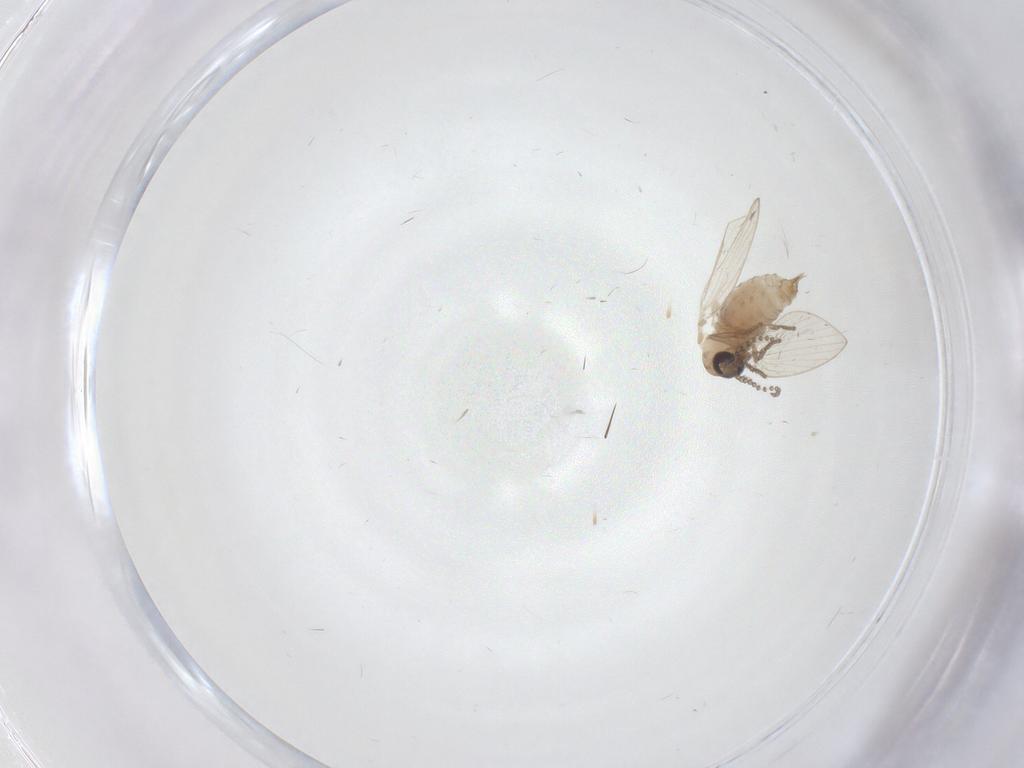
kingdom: Animalia
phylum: Arthropoda
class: Insecta
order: Diptera
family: Psychodidae
